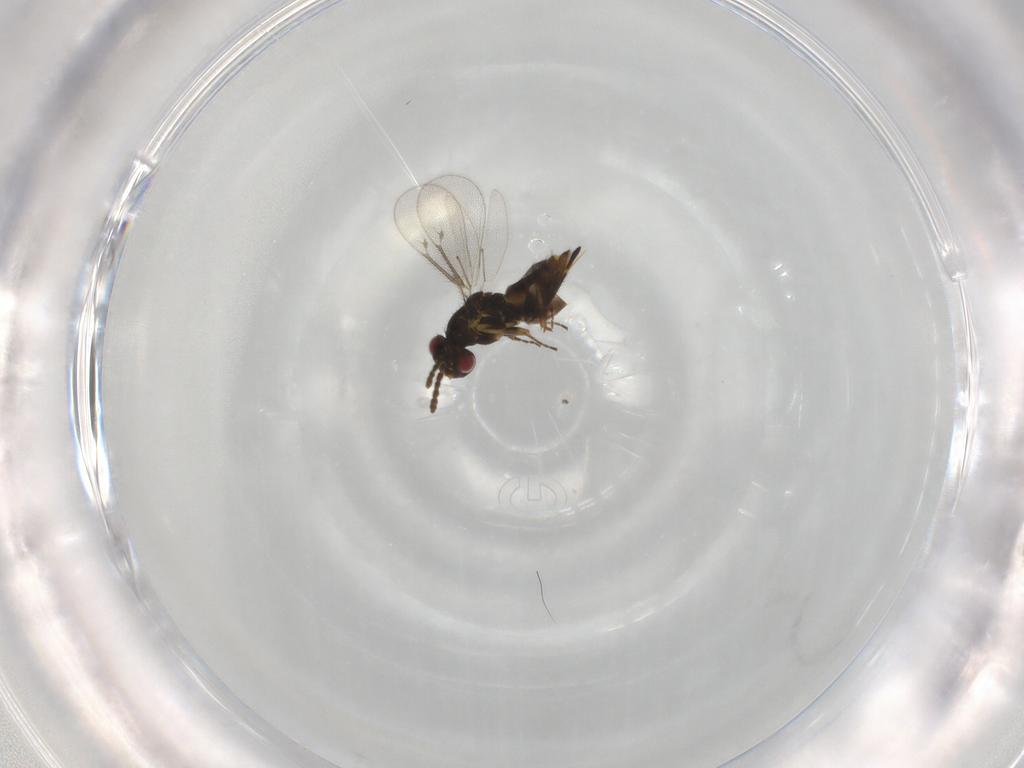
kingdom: Animalia
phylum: Arthropoda
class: Insecta
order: Hymenoptera
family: Eulophidae
